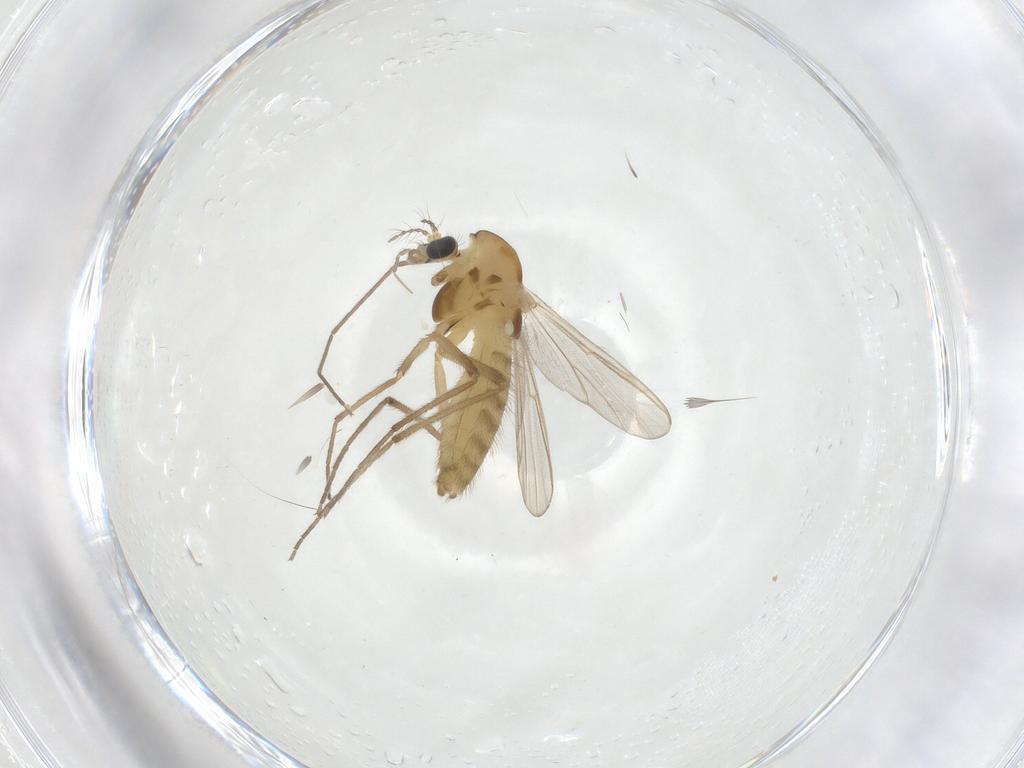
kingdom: Animalia
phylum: Arthropoda
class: Insecta
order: Diptera
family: Chironomidae
